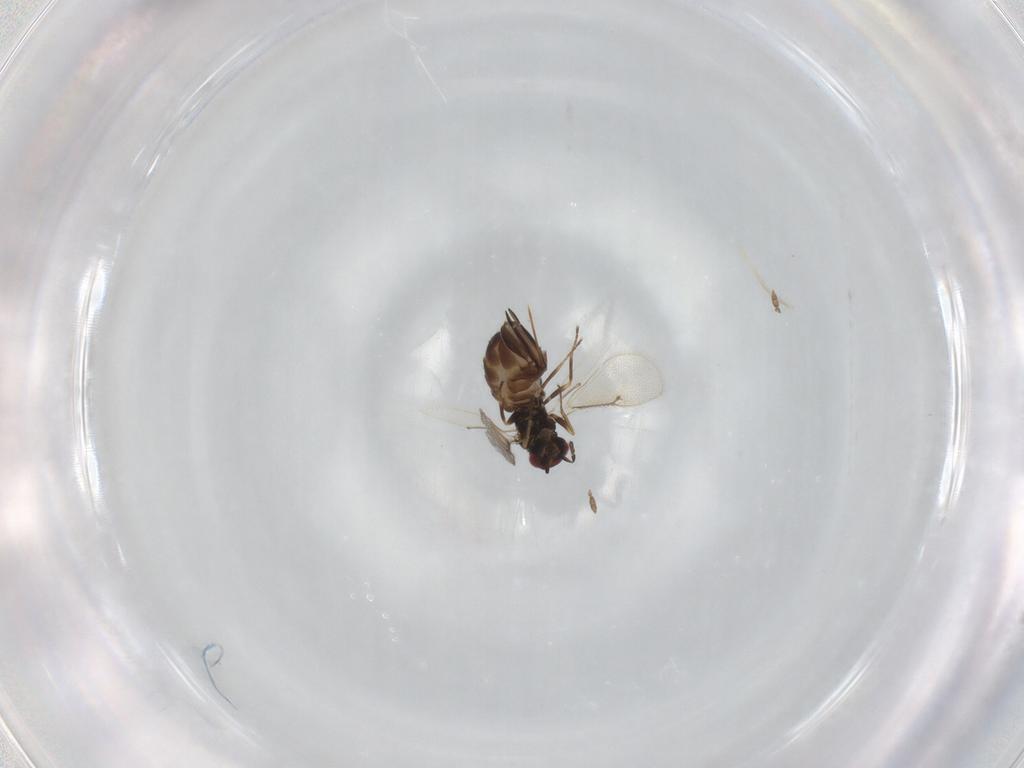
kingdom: Animalia
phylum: Arthropoda
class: Insecta
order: Hymenoptera
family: Eulophidae
